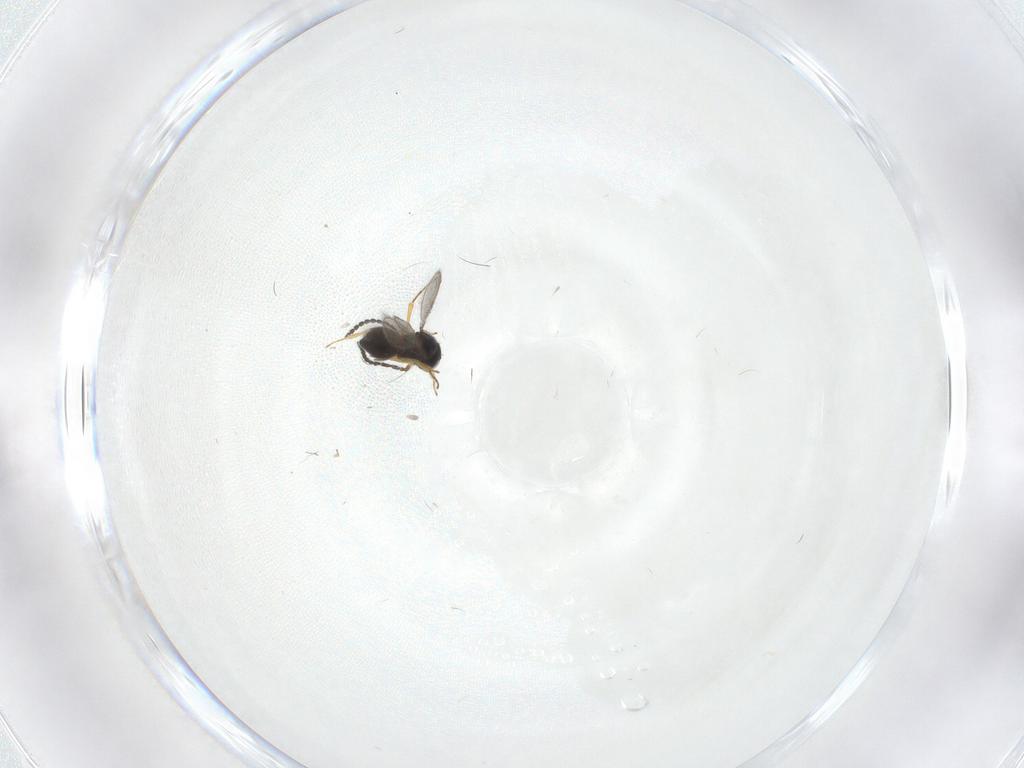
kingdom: Animalia
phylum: Arthropoda
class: Insecta
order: Hymenoptera
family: Scelionidae
